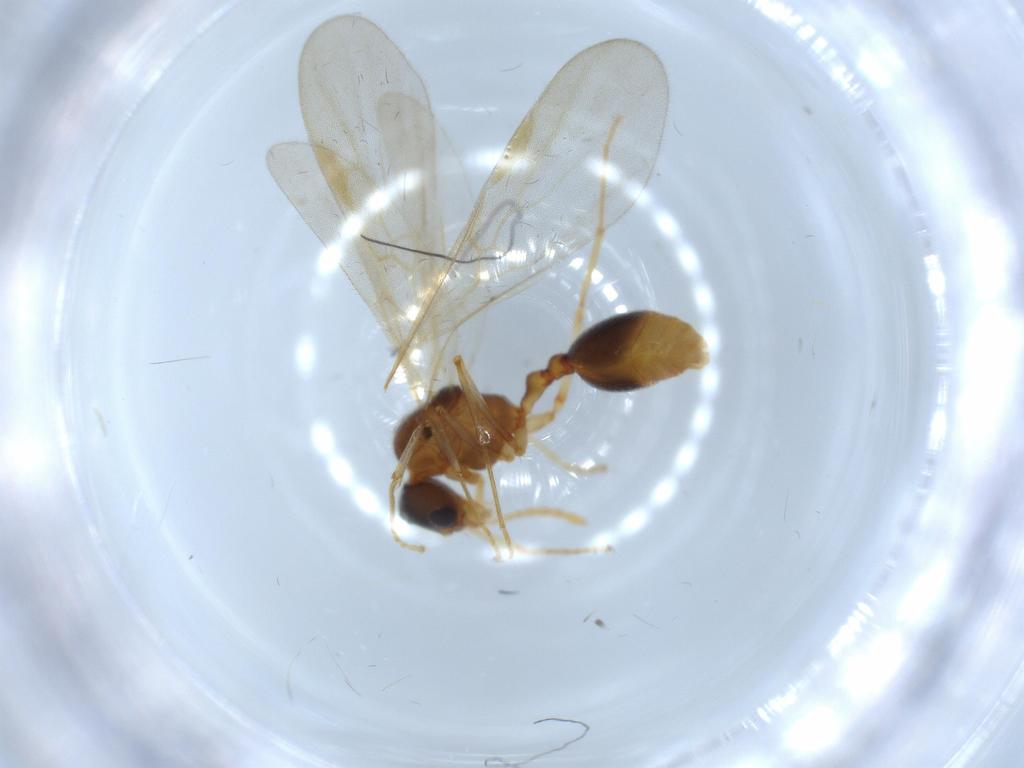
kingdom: Animalia
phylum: Arthropoda
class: Insecta
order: Hymenoptera
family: Formicidae
